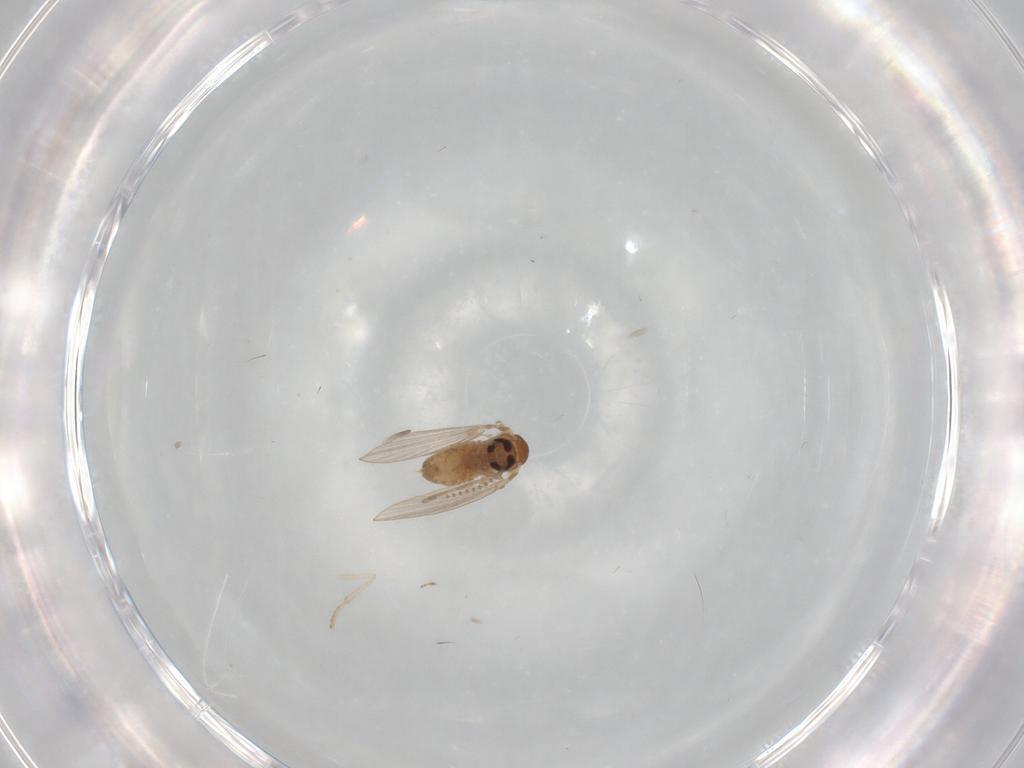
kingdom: Animalia
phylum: Arthropoda
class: Insecta
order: Diptera
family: Psychodidae
